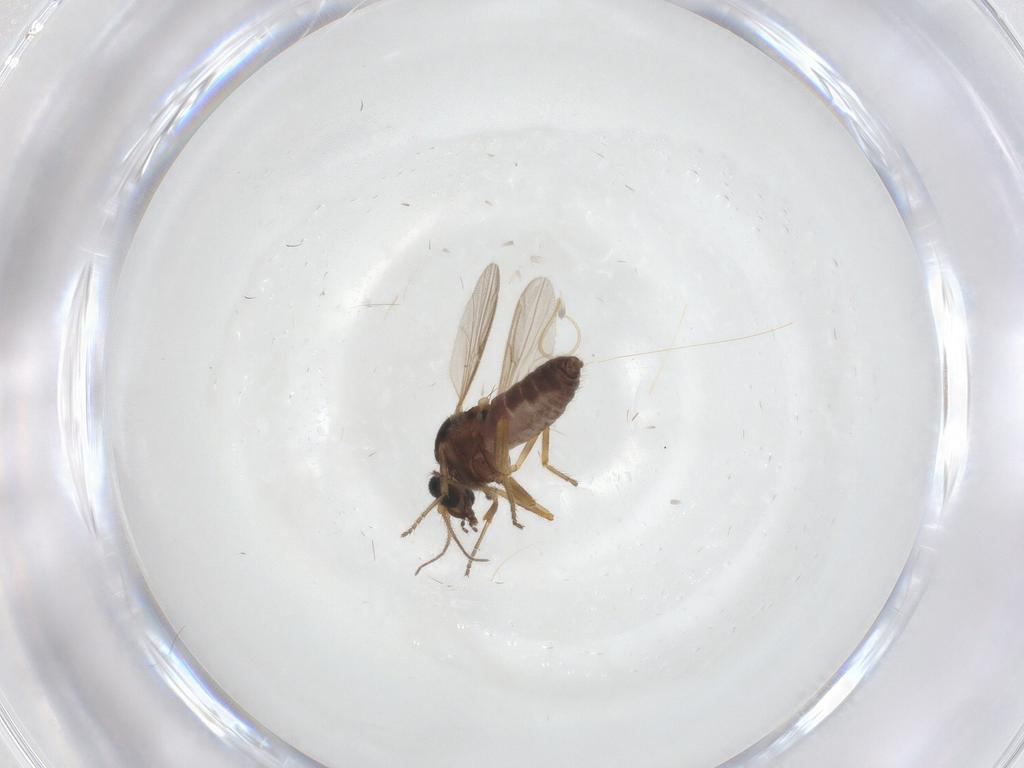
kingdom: Animalia
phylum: Arthropoda
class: Insecta
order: Diptera
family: Ceratopogonidae
